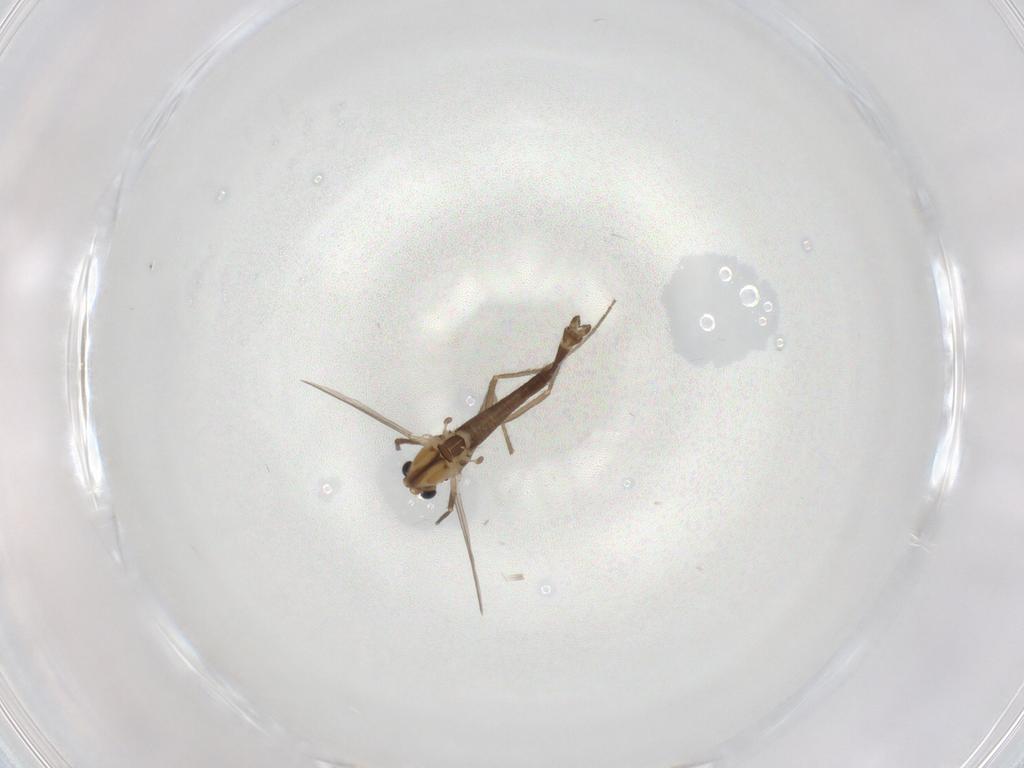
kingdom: Animalia
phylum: Arthropoda
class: Insecta
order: Diptera
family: Chironomidae
